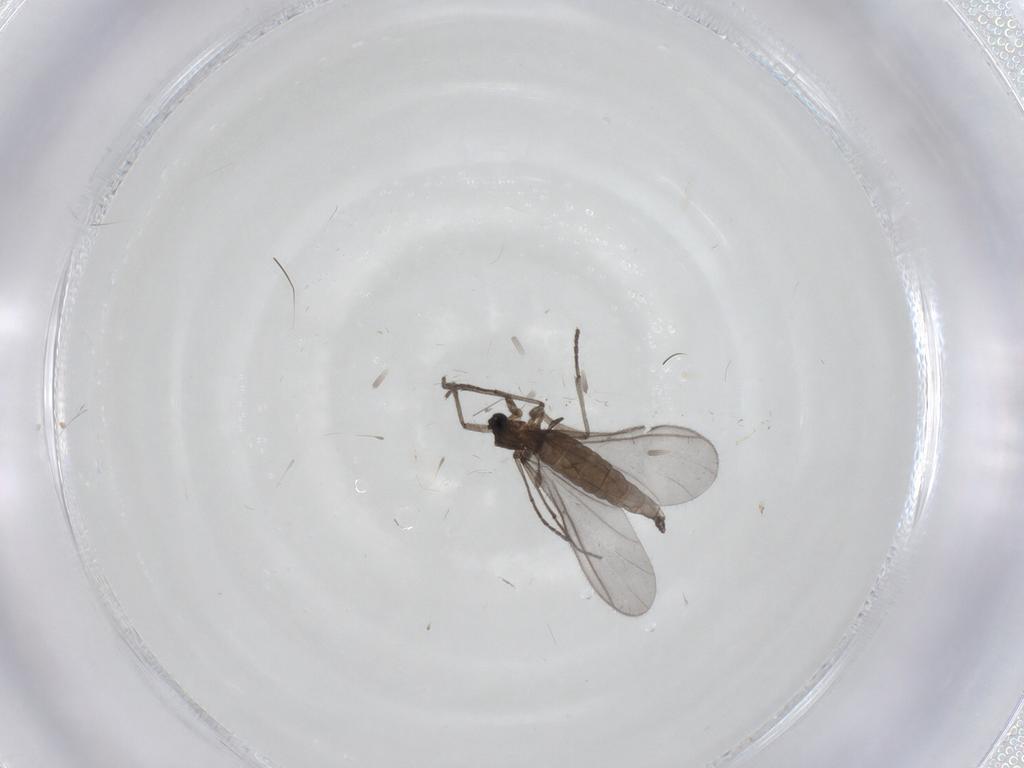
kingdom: Animalia
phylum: Arthropoda
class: Insecta
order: Diptera
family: Sciaridae
